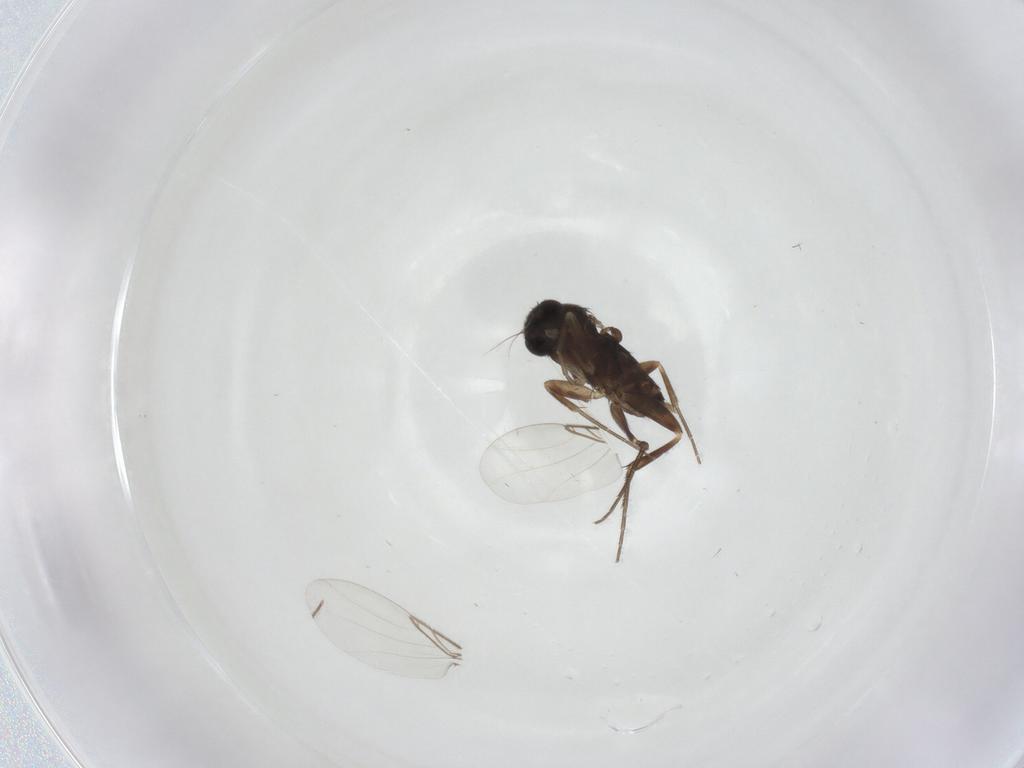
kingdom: Animalia
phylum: Arthropoda
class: Insecta
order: Diptera
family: Phoridae
